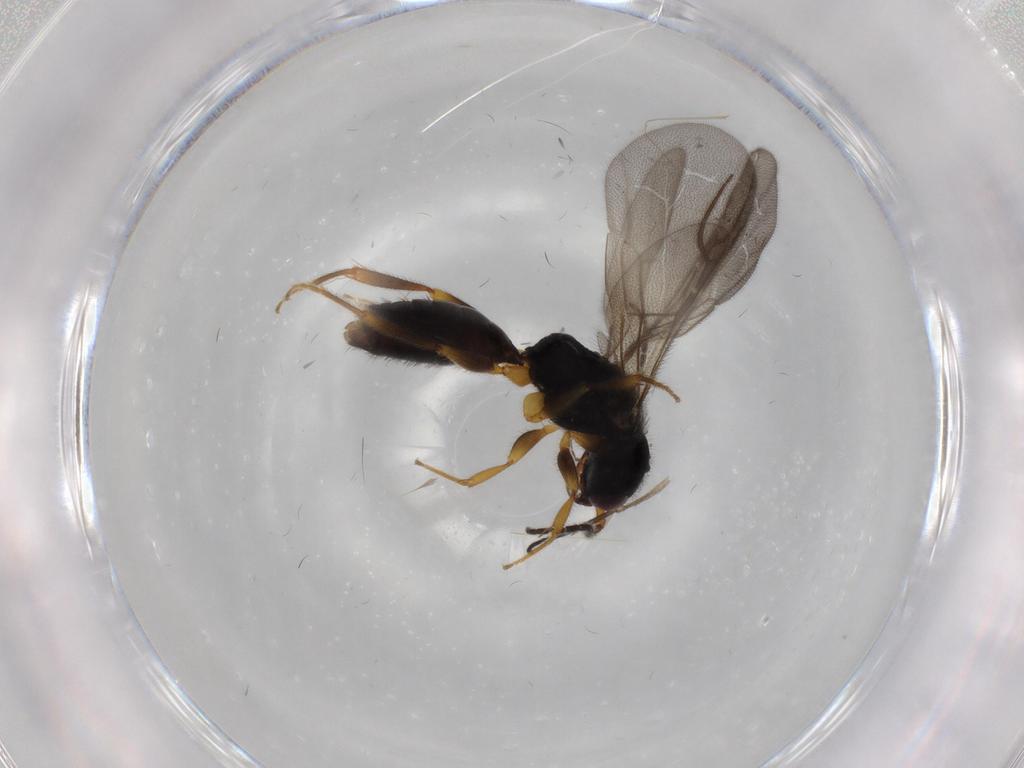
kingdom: Animalia
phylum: Arthropoda
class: Insecta
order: Hymenoptera
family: Bethylidae
